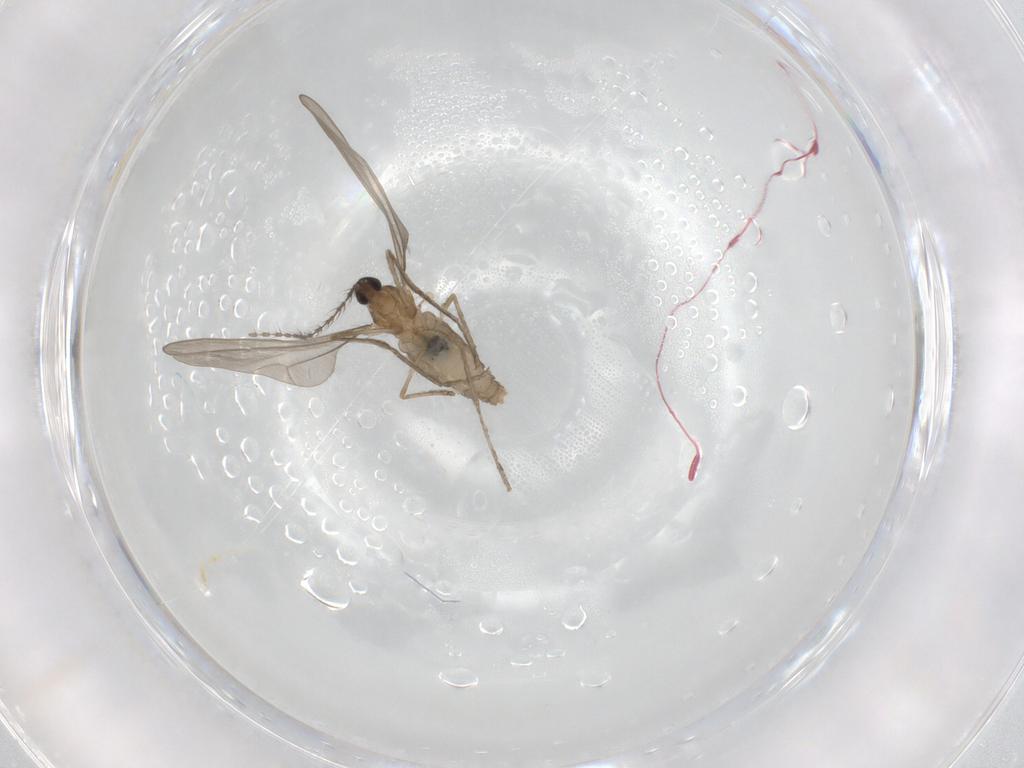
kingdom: Animalia
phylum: Arthropoda
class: Insecta
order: Diptera
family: Cecidomyiidae
